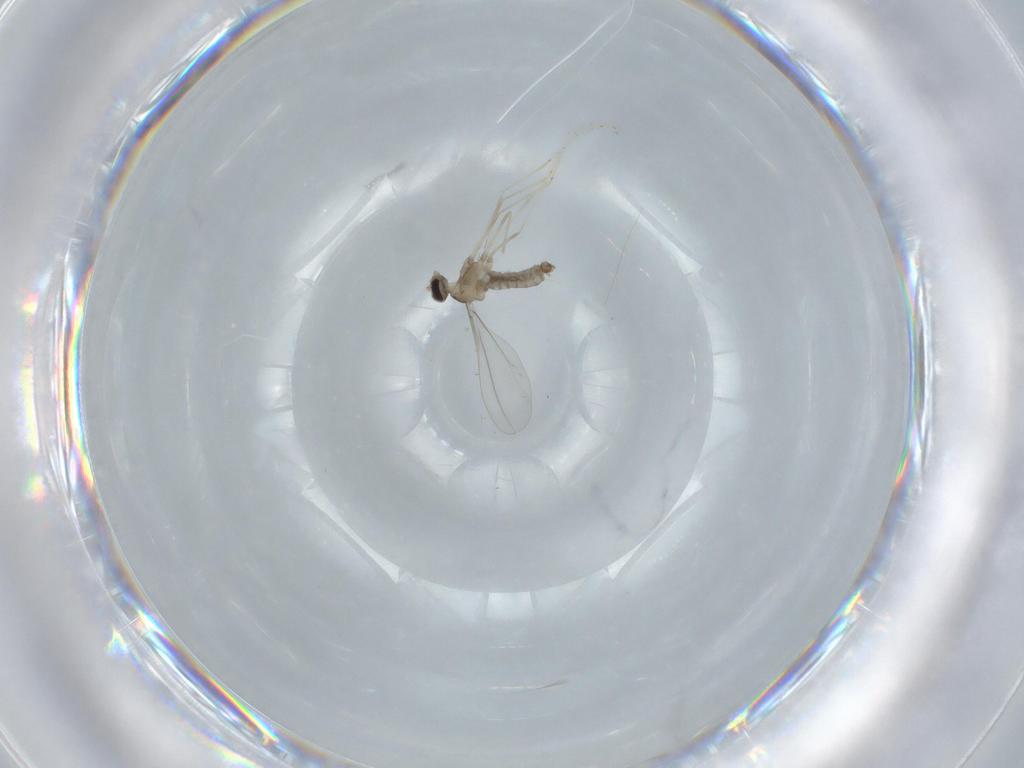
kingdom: Animalia
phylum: Arthropoda
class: Insecta
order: Diptera
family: Cecidomyiidae
